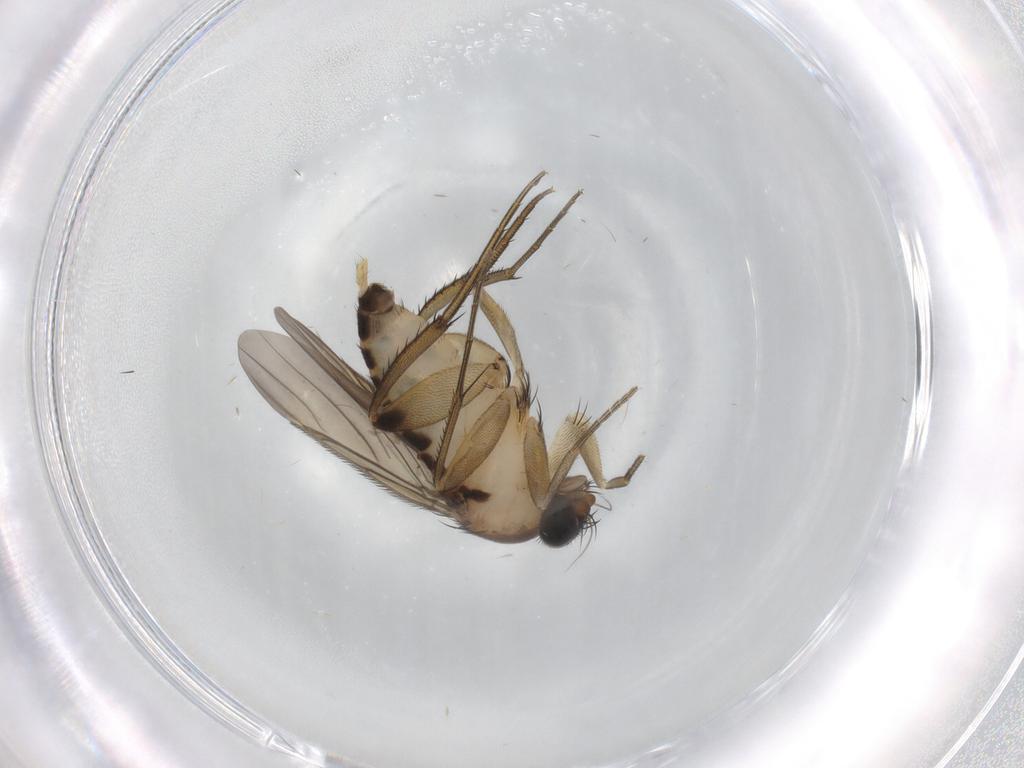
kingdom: Animalia
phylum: Arthropoda
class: Insecta
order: Diptera
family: Phoridae
